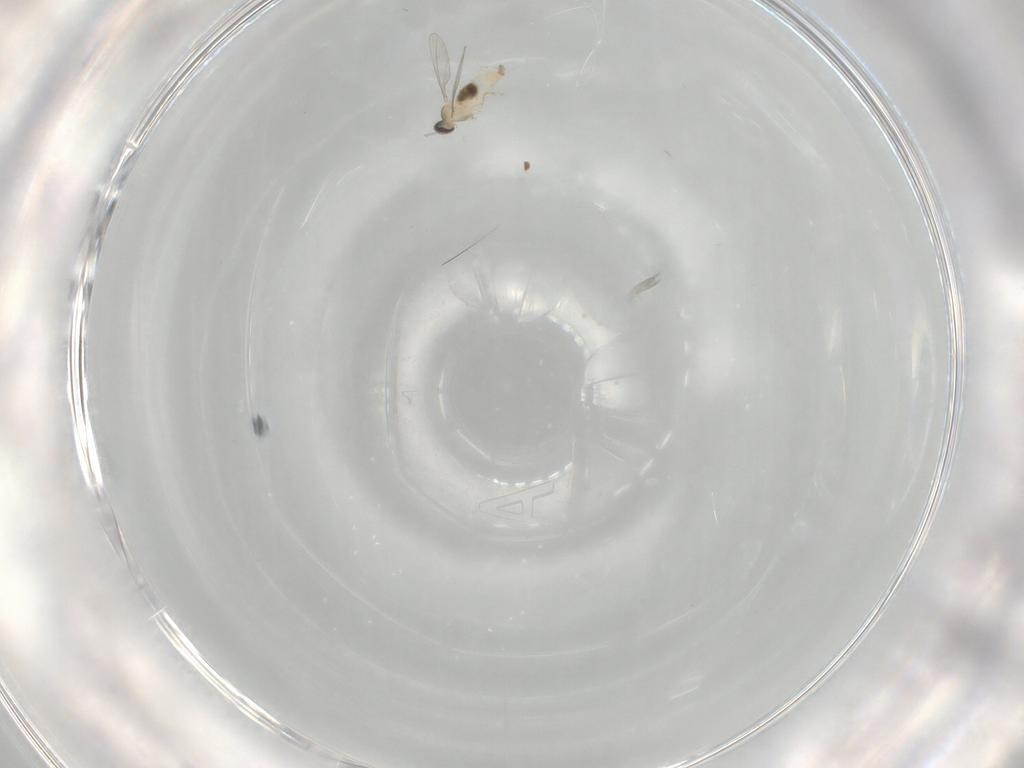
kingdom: Animalia
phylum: Arthropoda
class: Insecta
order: Diptera
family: Cecidomyiidae
